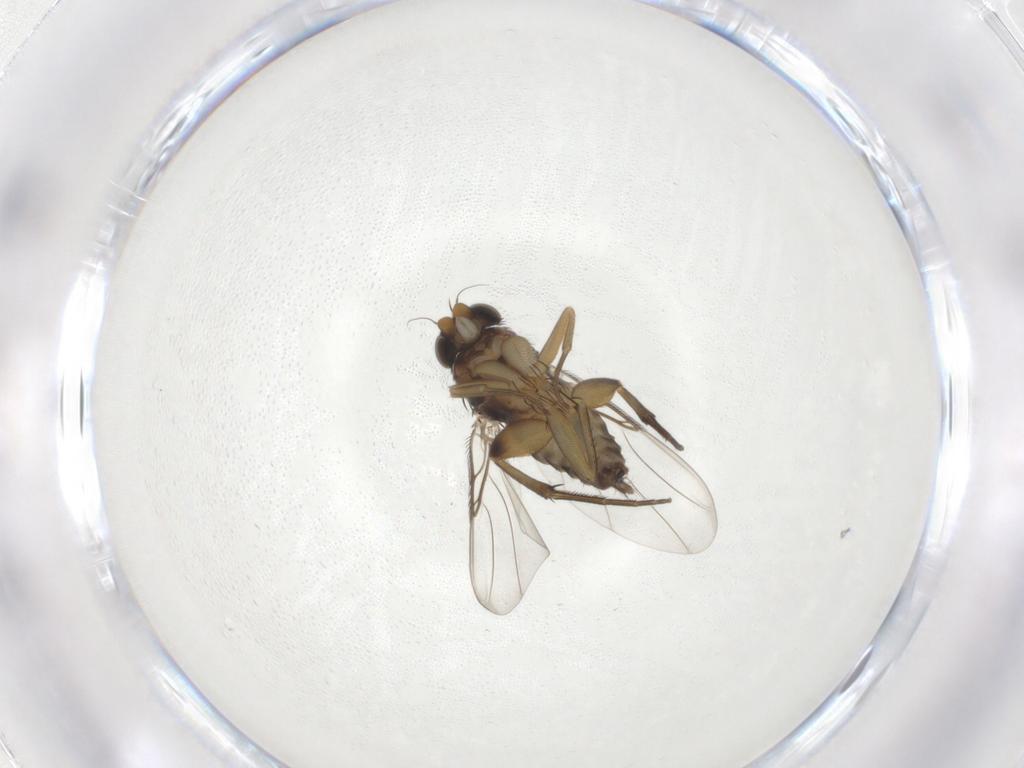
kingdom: Animalia
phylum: Arthropoda
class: Insecta
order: Diptera
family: Phoridae
